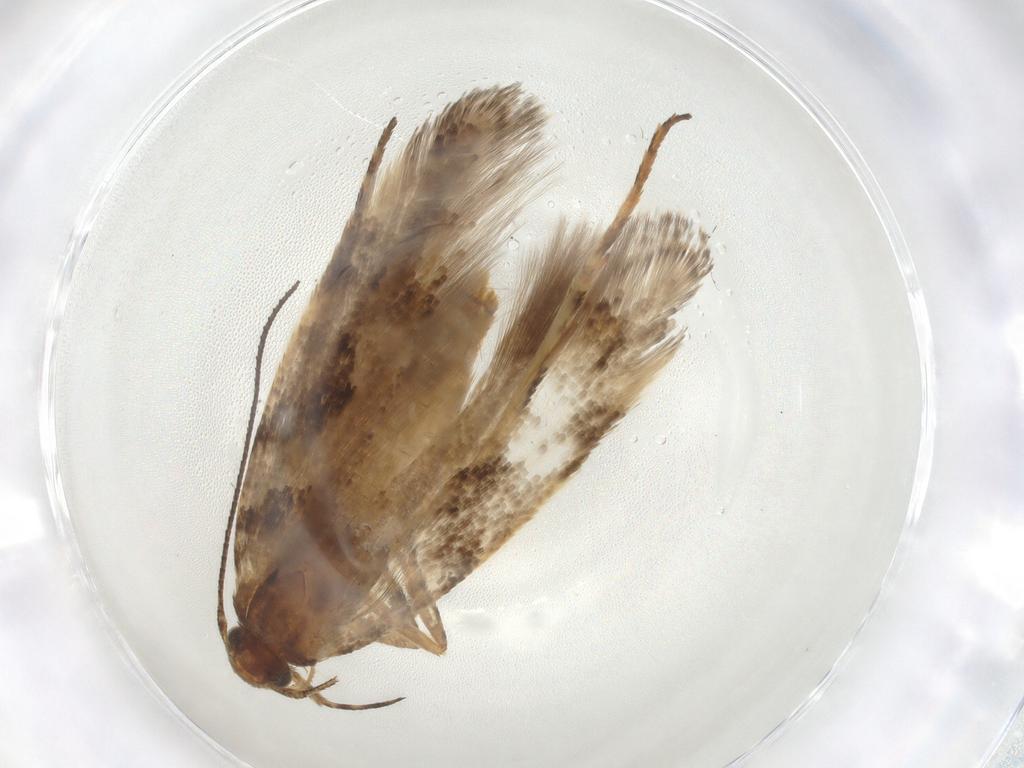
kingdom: Animalia
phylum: Arthropoda
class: Insecta
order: Lepidoptera
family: Gelechiidae
